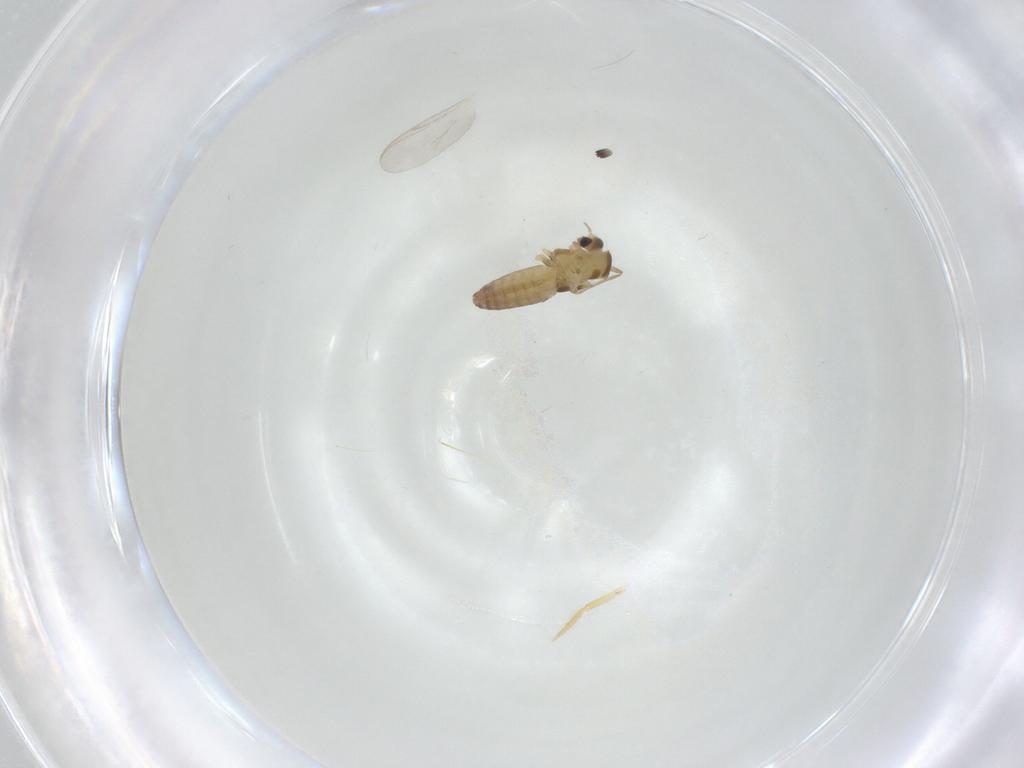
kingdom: Animalia
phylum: Arthropoda
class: Insecta
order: Diptera
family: Chironomidae
